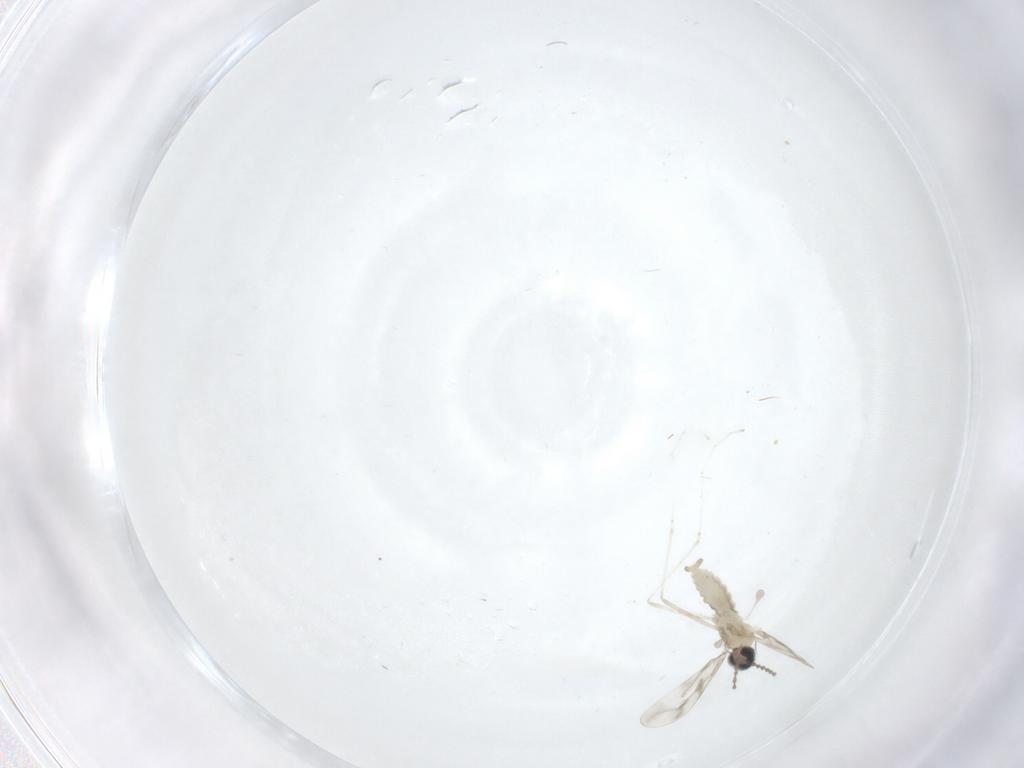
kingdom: Animalia
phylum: Arthropoda
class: Insecta
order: Diptera
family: Cecidomyiidae
